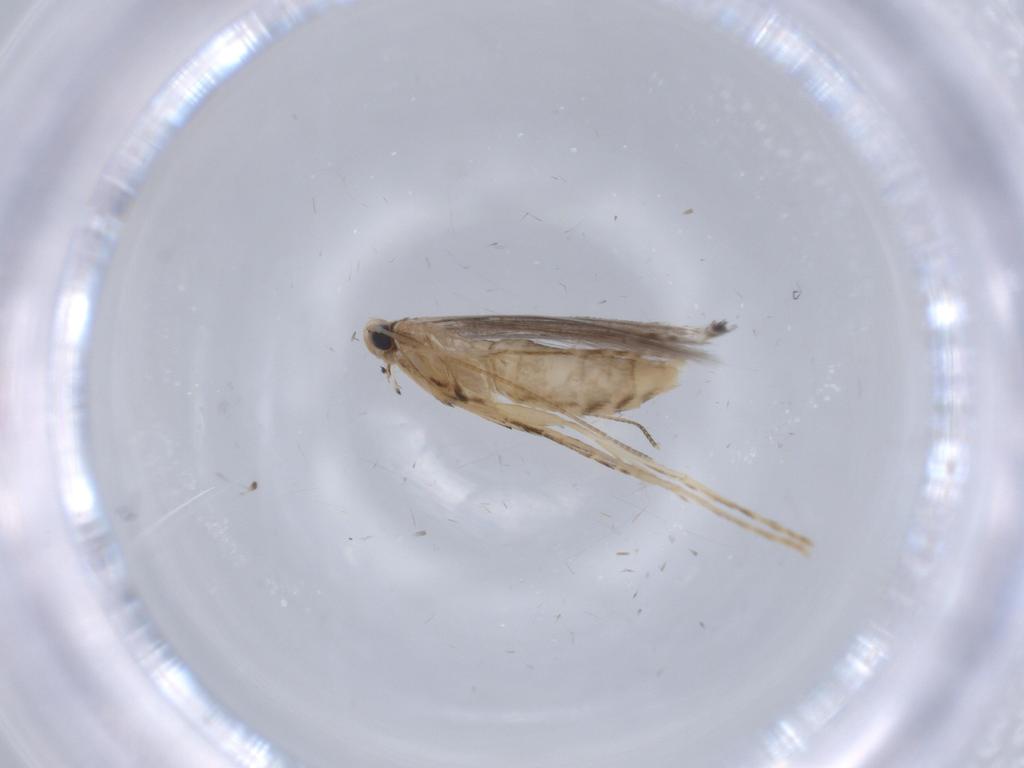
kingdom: Animalia
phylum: Arthropoda
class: Insecta
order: Lepidoptera
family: Gracillariidae
